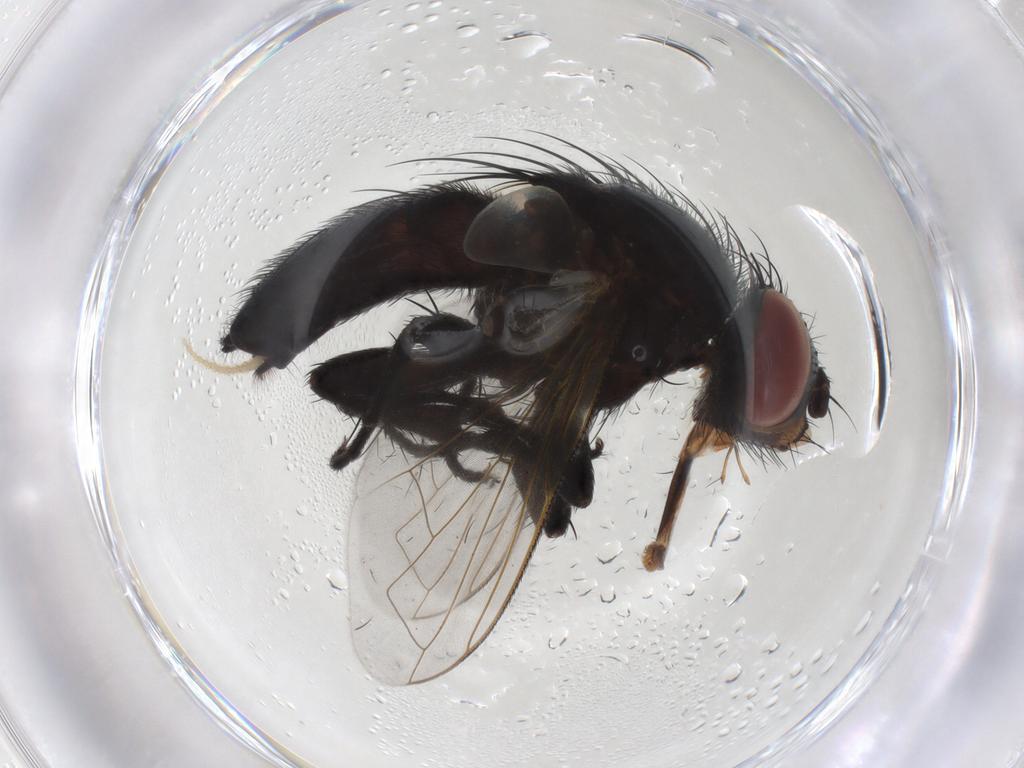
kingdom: Animalia
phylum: Arthropoda
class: Insecta
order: Diptera
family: Tachinidae
